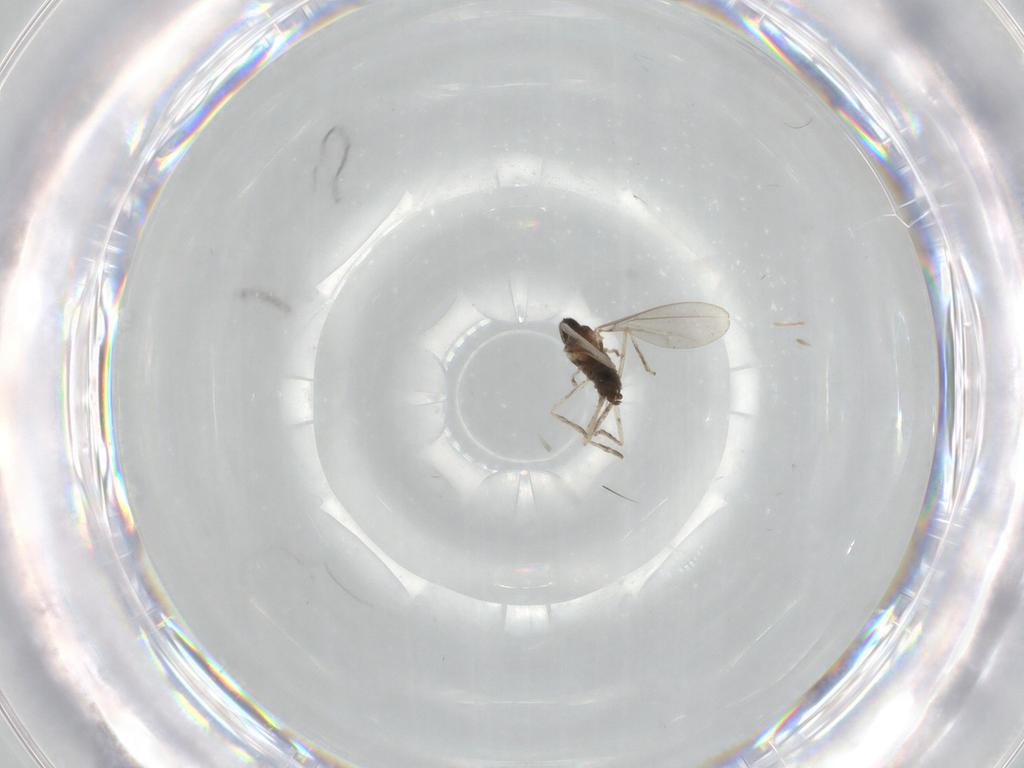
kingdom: Animalia
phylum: Arthropoda
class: Insecta
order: Diptera
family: Cecidomyiidae
